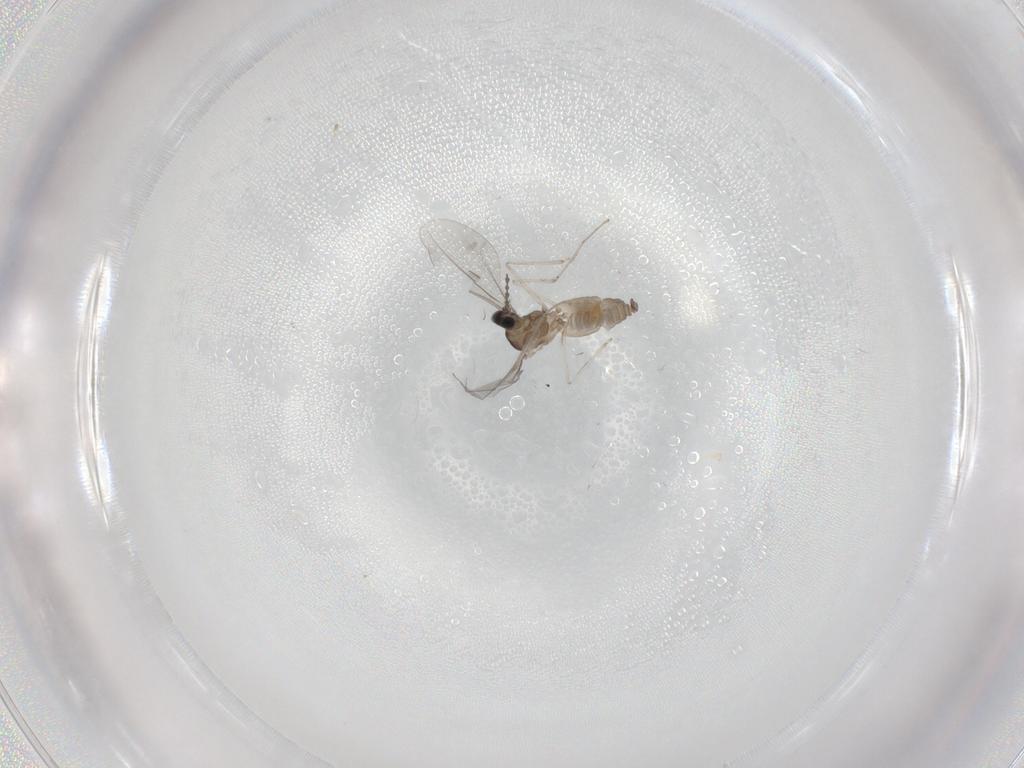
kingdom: Animalia
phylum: Arthropoda
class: Insecta
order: Diptera
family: Cecidomyiidae
